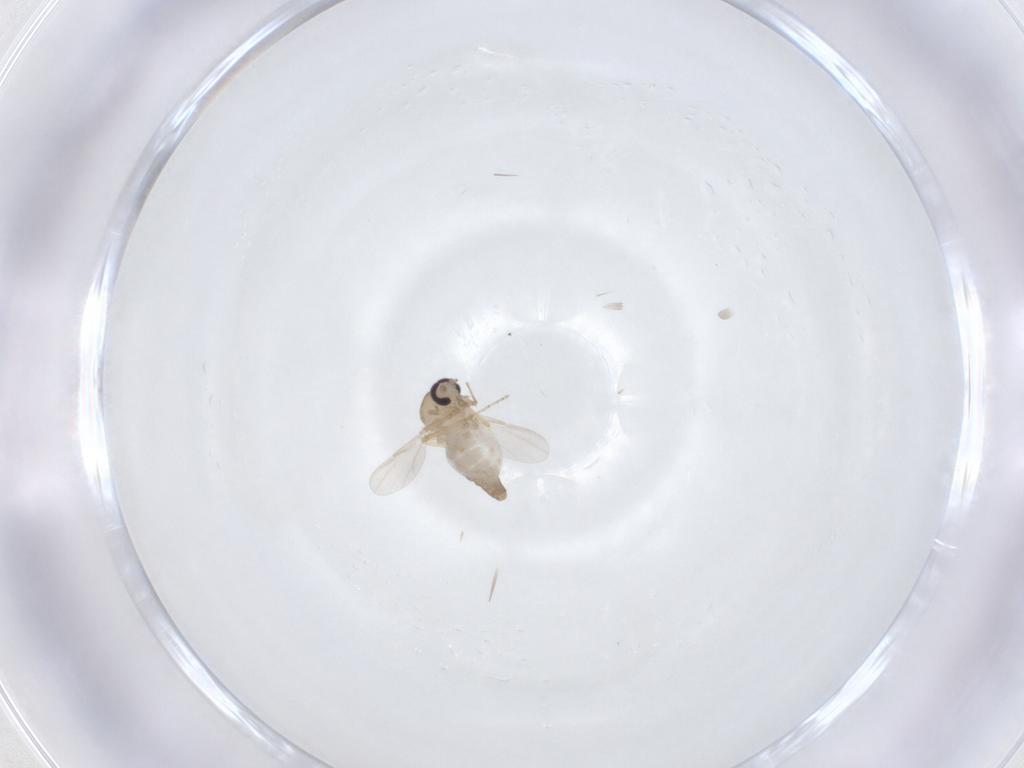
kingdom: Animalia
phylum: Arthropoda
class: Insecta
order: Diptera
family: Ceratopogonidae
